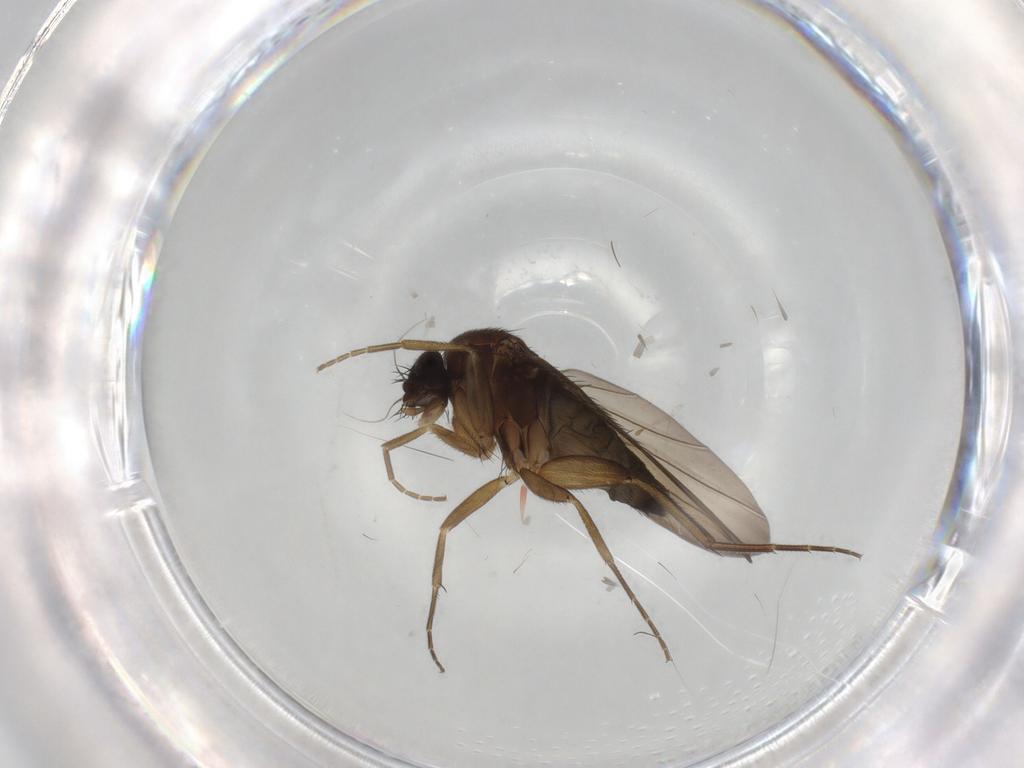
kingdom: Animalia
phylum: Arthropoda
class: Insecta
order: Diptera
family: Phoridae
